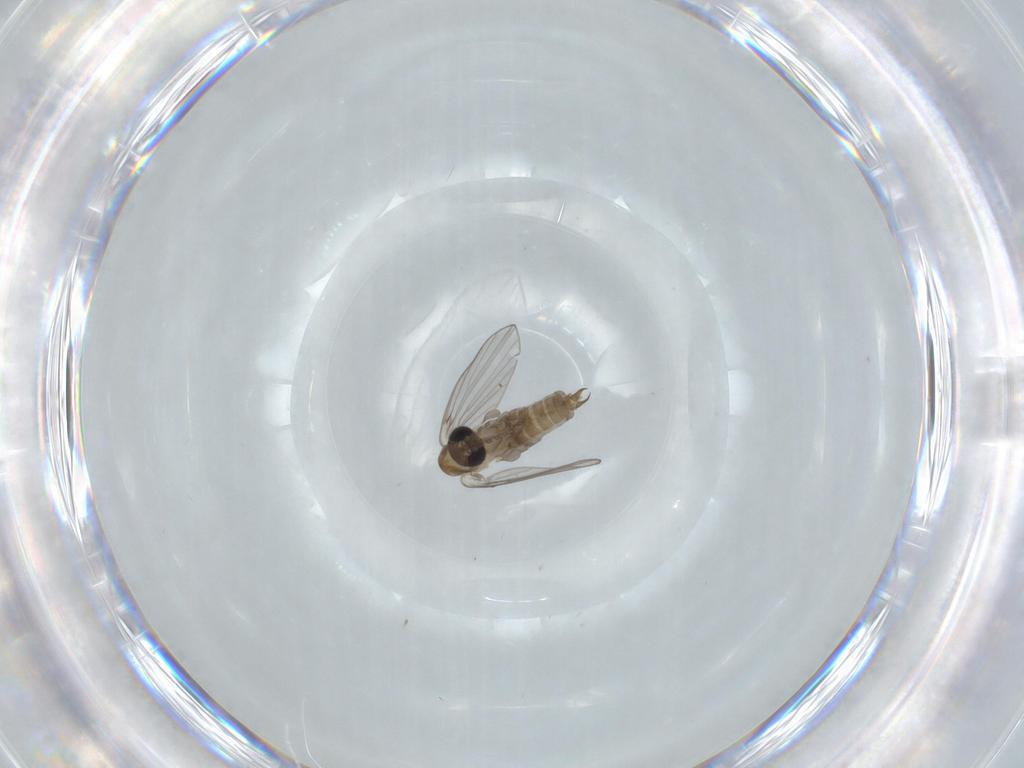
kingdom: Animalia
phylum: Arthropoda
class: Insecta
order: Diptera
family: Psychodidae
